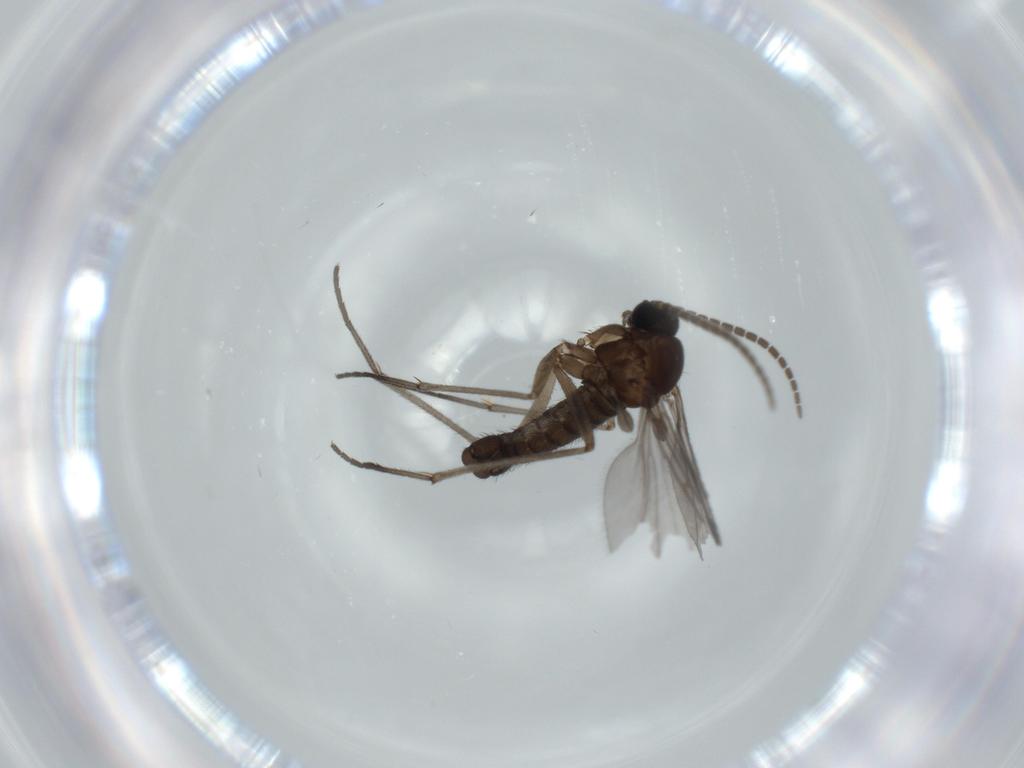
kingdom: Animalia
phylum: Arthropoda
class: Insecta
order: Diptera
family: Sciaridae
